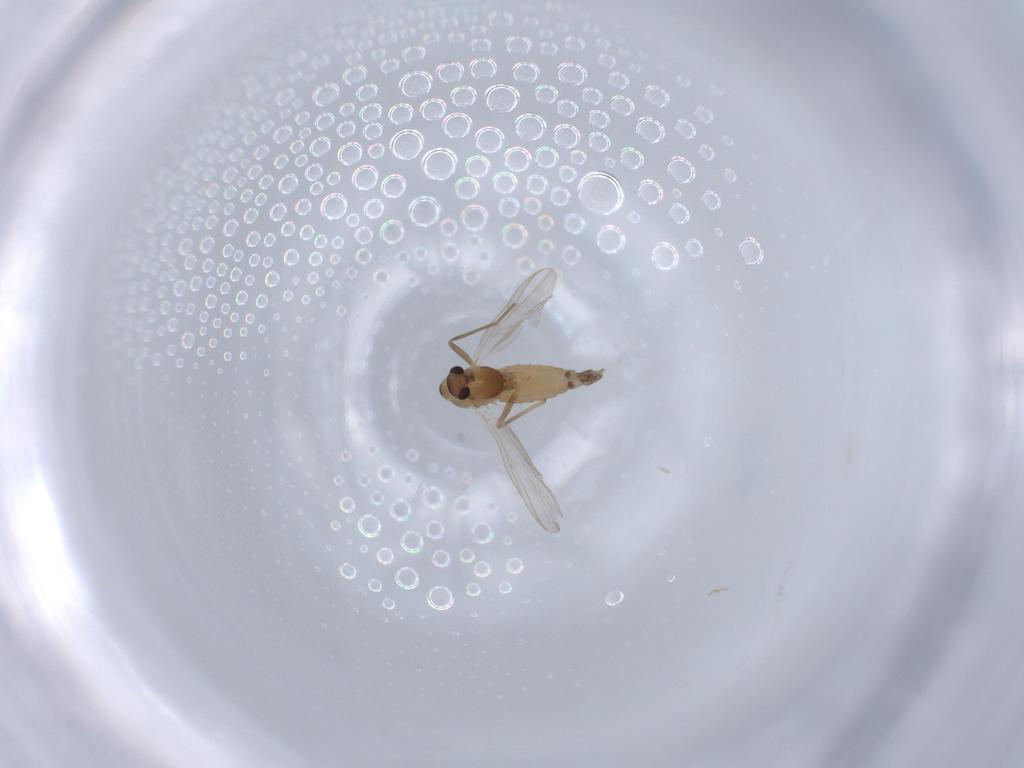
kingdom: Animalia
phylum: Arthropoda
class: Insecta
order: Diptera
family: Chironomidae
